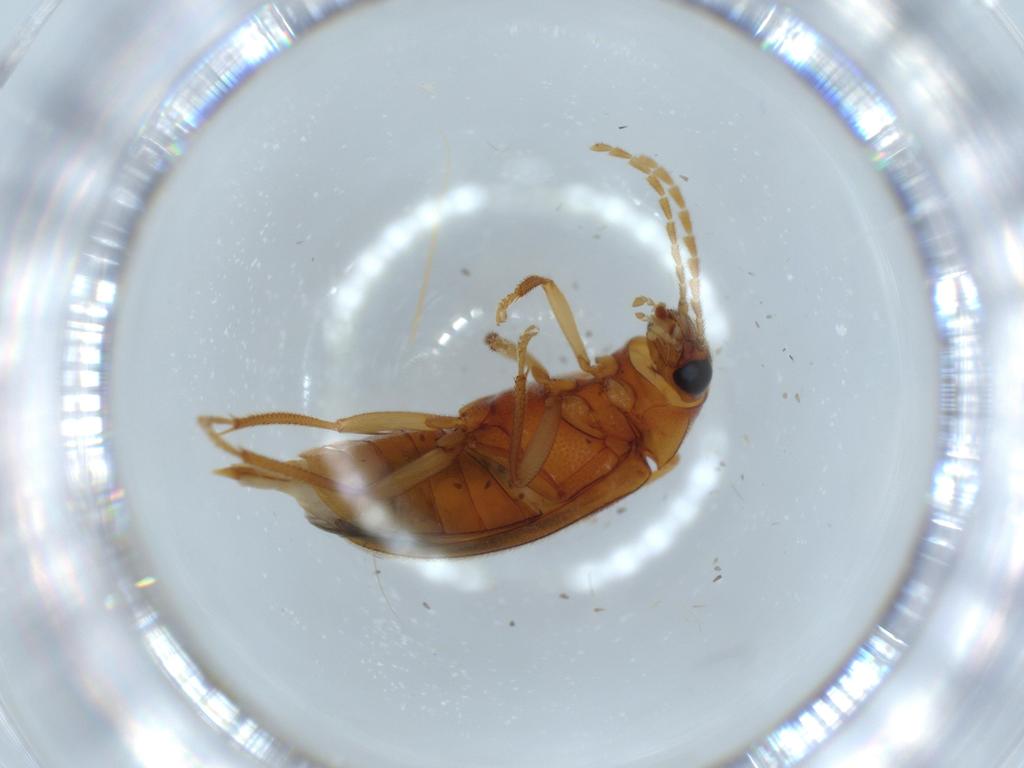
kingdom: Animalia
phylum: Arthropoda
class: Insecta
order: Coleoptera
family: Ptilodactylidae
